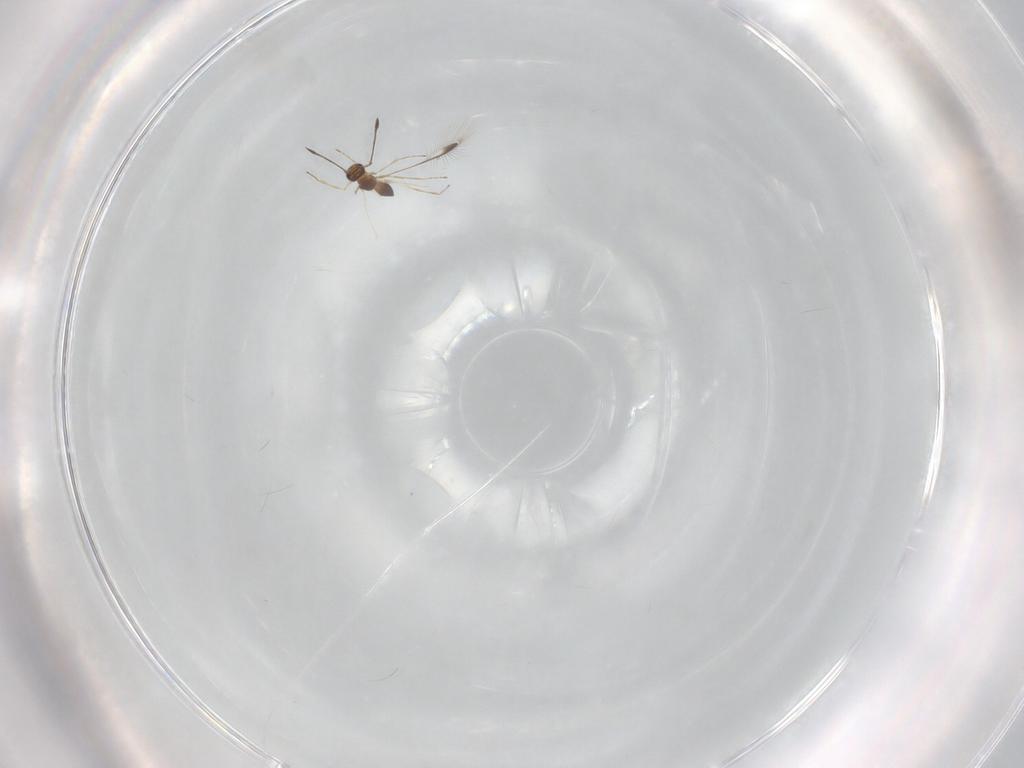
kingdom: Animalia
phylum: Arthropoda
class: Insecta
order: Hymenoptera
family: Mymaridae
